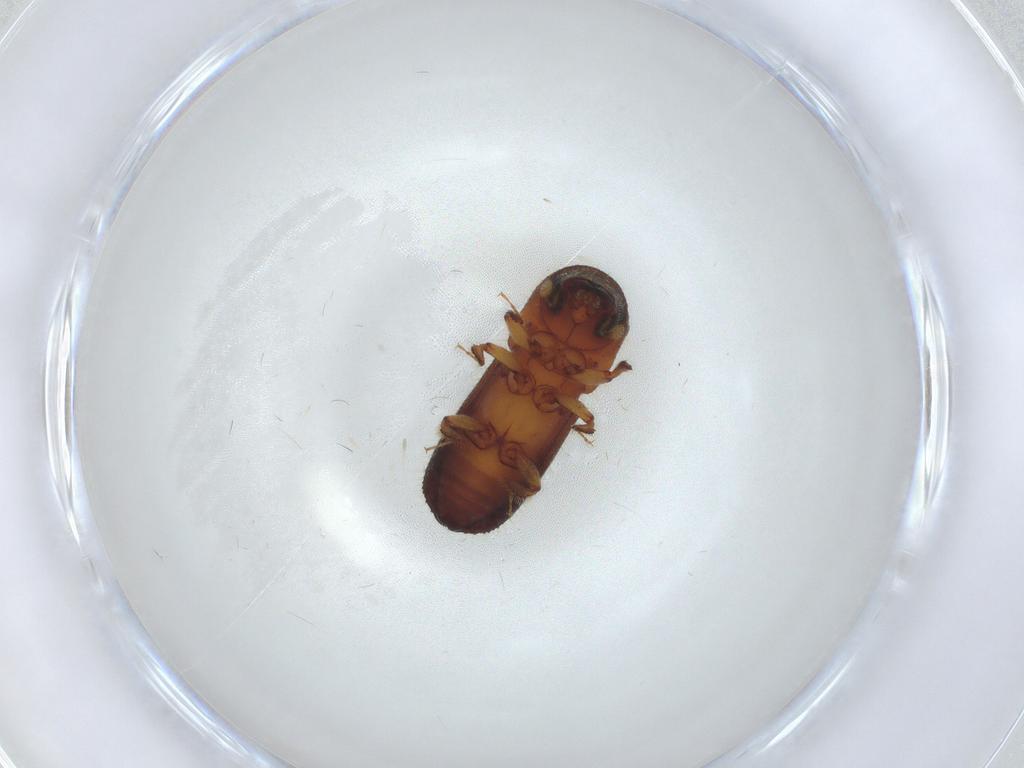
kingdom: Animalia
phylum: Arthropoda
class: Insecta
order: Coleoptera
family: Curculionidae
